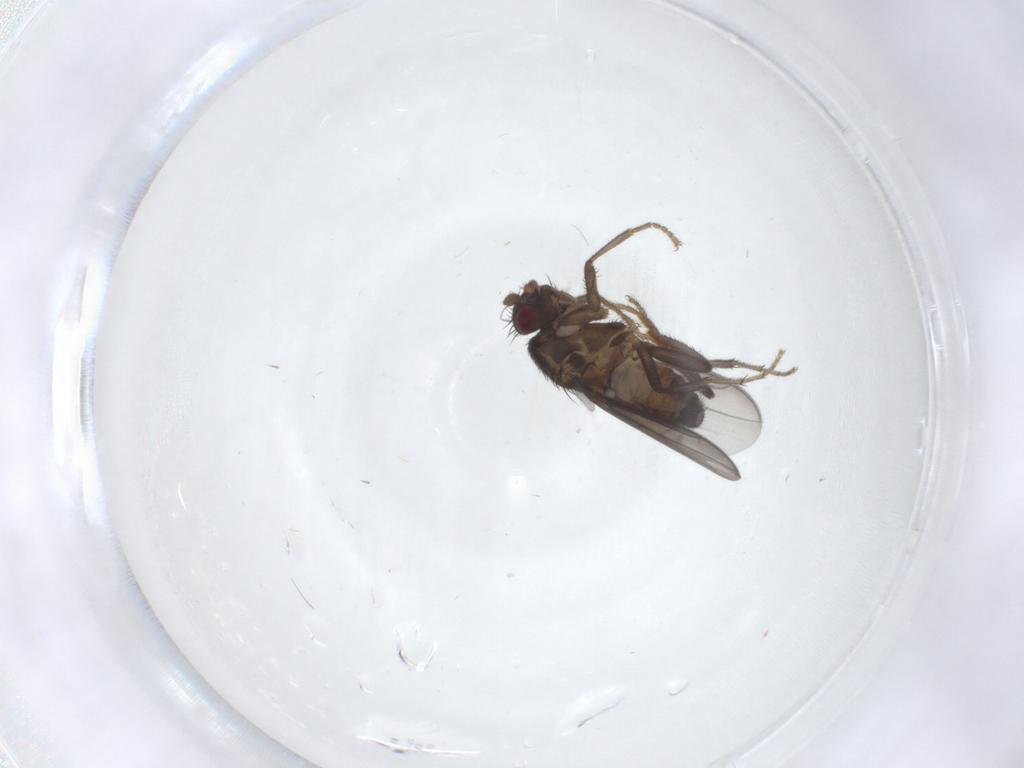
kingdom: Animalia
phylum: Arthropoda
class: Insecta
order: Diptera
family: Sphaeroceridae
